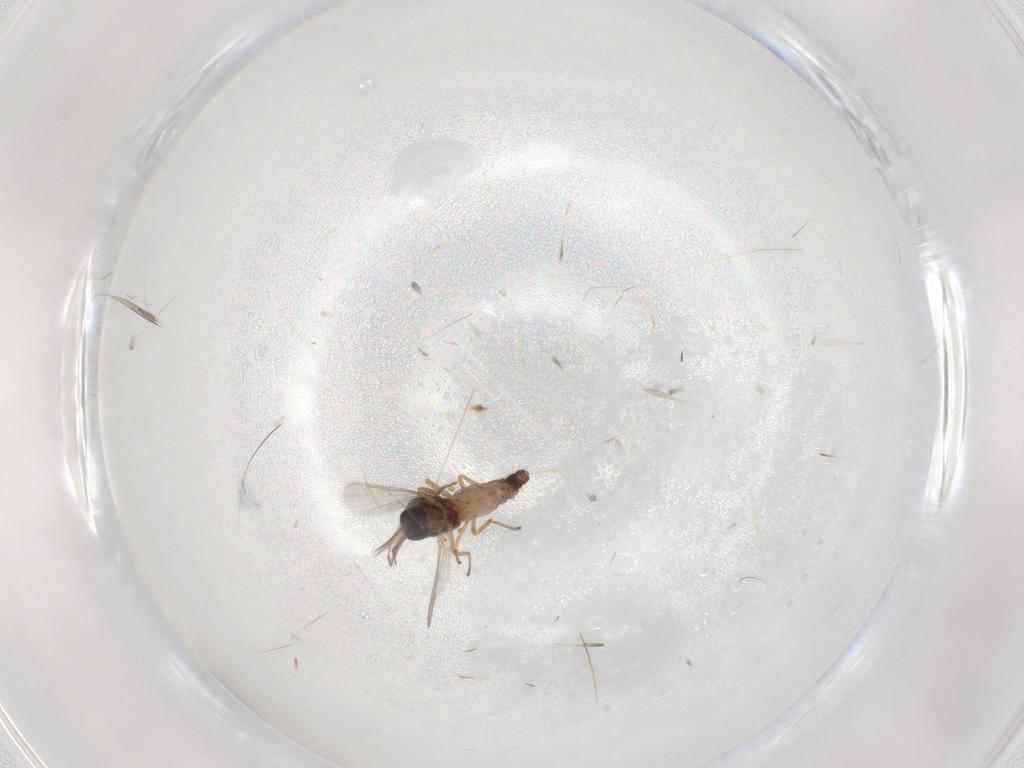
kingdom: Animalia
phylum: Arthropoda
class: Insecta
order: Diptera
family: Ceratopogonidae
